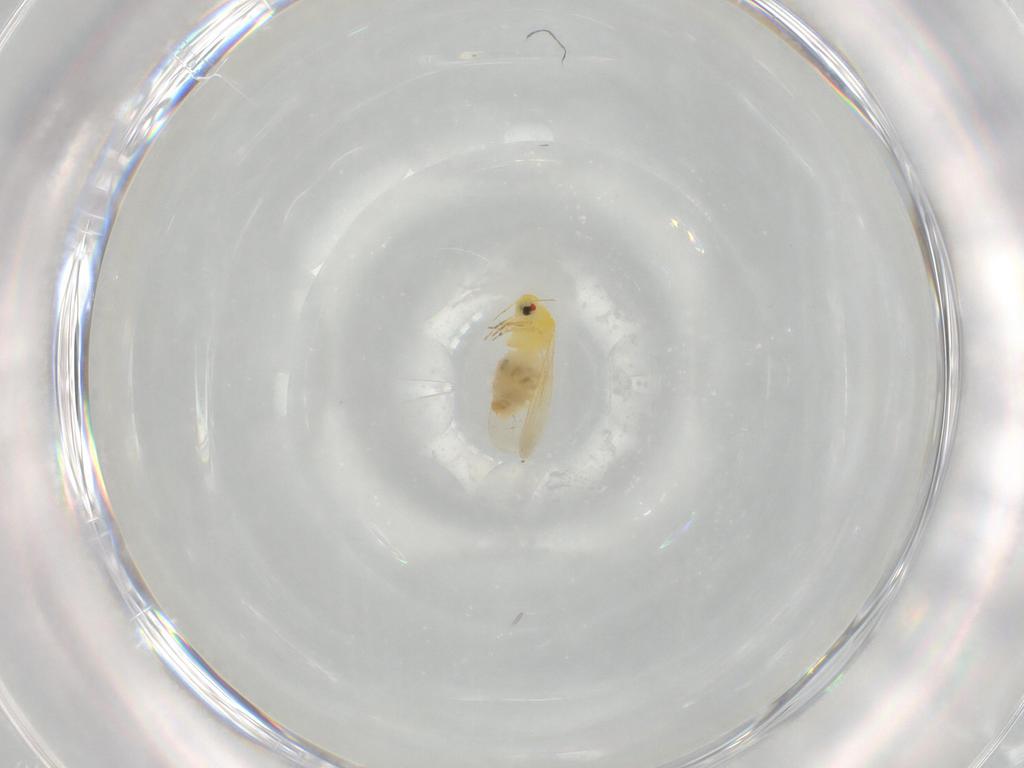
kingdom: Animalia
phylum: Arthropoda
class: Insecta
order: Hemiptera
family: Aleyrodidae
